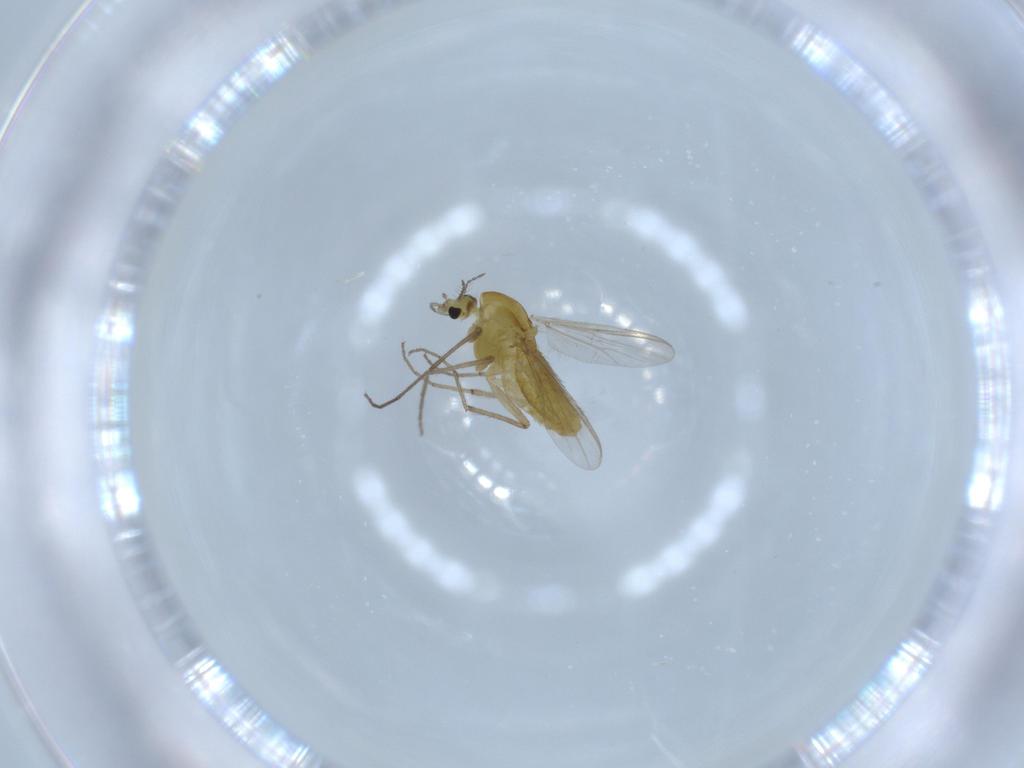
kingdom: Animalia
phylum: Arthropoda
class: Insecta
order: Diptera
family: Chironomidae
